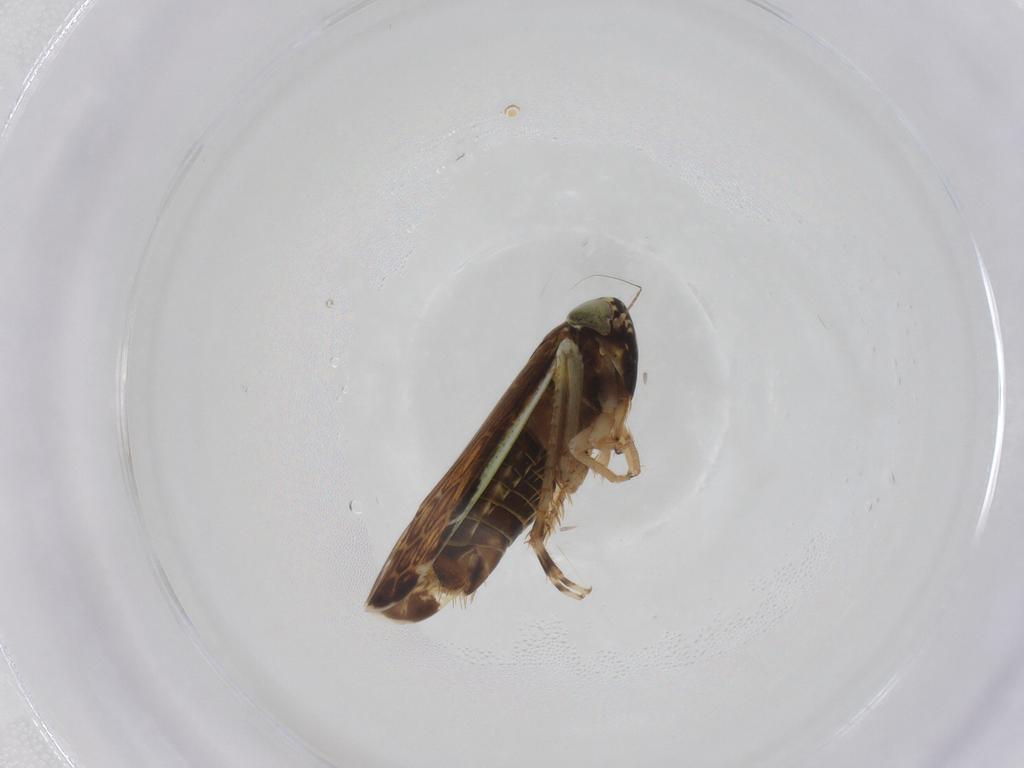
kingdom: Animalia
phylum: Arthropoda
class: Insecta
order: Hemiptera
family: Cicadellidae
